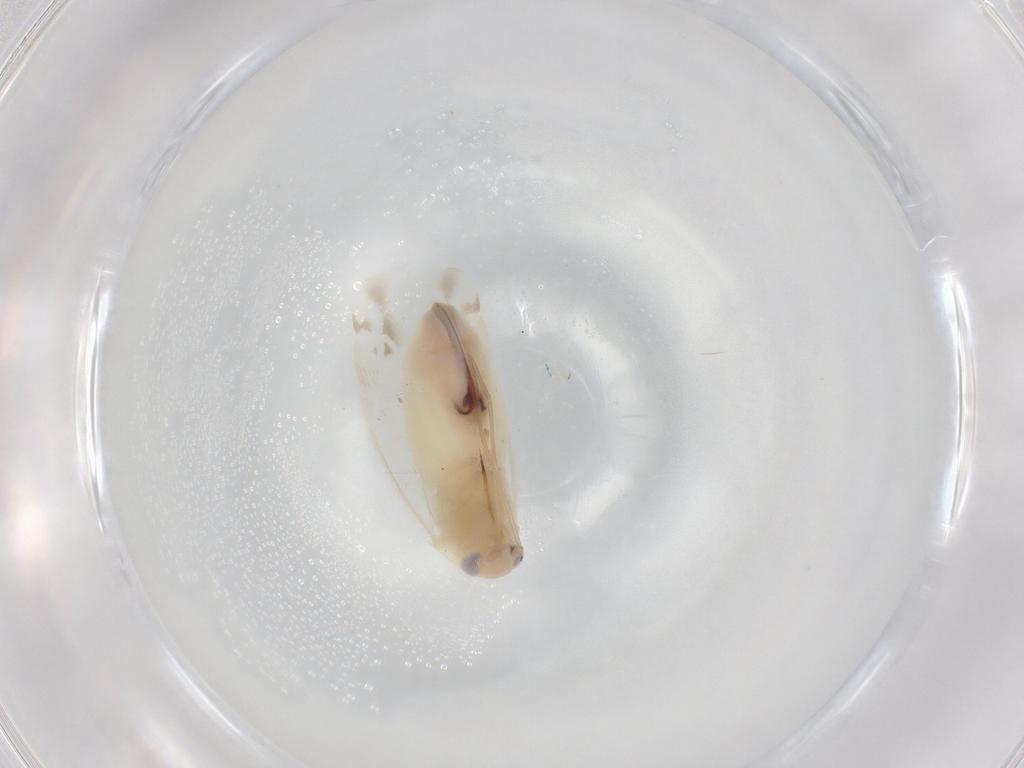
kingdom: Animalia
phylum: Arthropoda
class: Insecta
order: Hemiptera
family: Miridae
